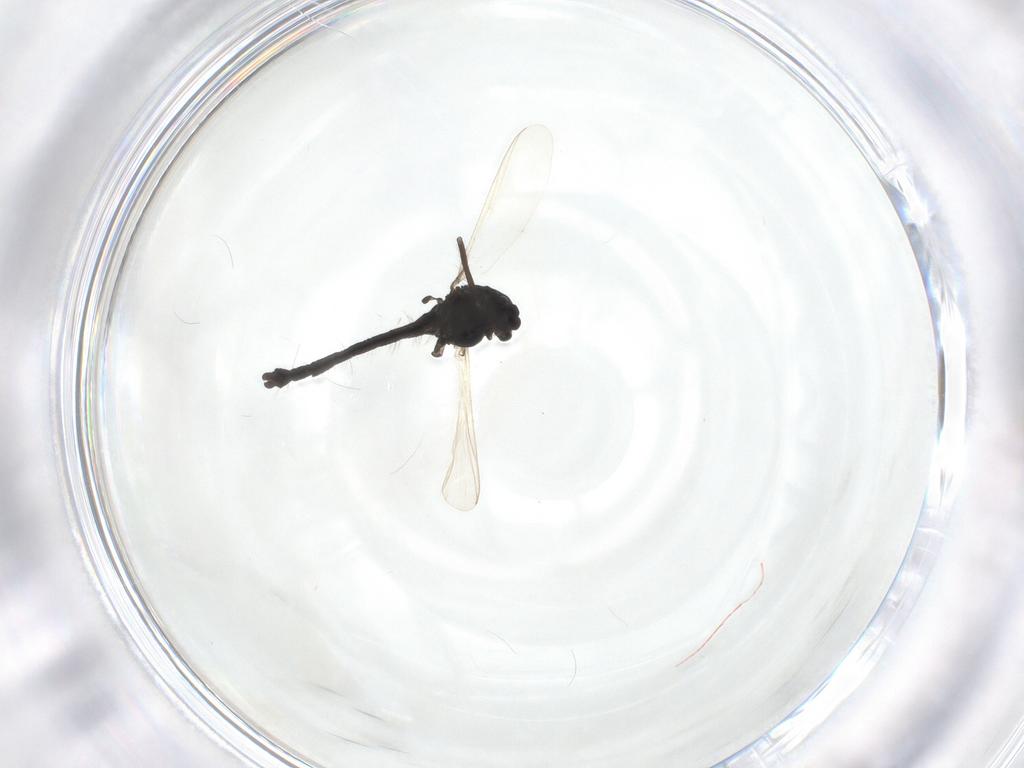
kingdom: Animalia
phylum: Arthropoda
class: Insecta
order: Diptera
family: Chironomidae
